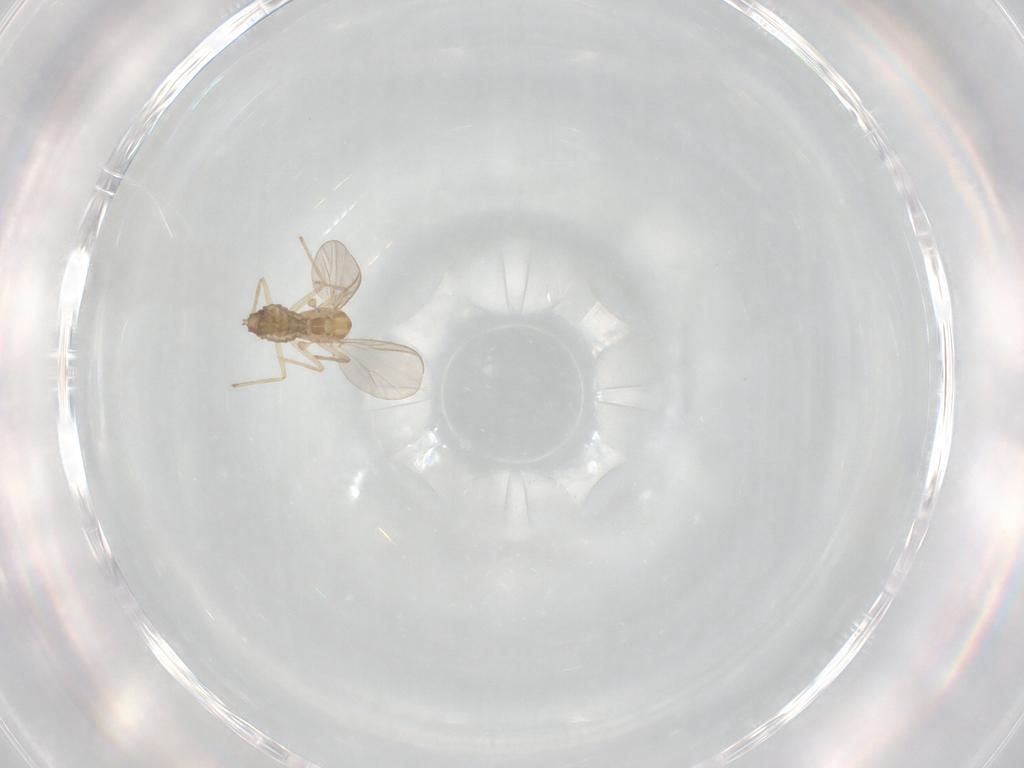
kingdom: Animalia
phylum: Arthropoda
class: Insecta
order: Diptera
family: Chironomidae
